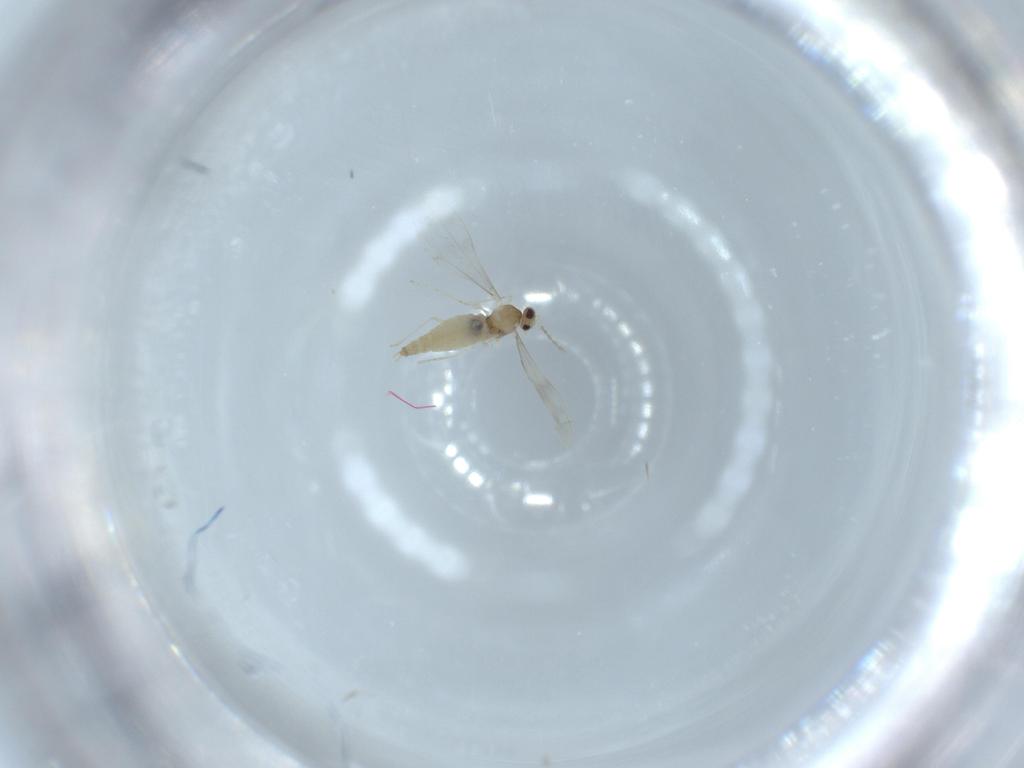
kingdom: Animalia
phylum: Arthropoda
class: Insecta
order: Diptera
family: Cecidomyiidae
